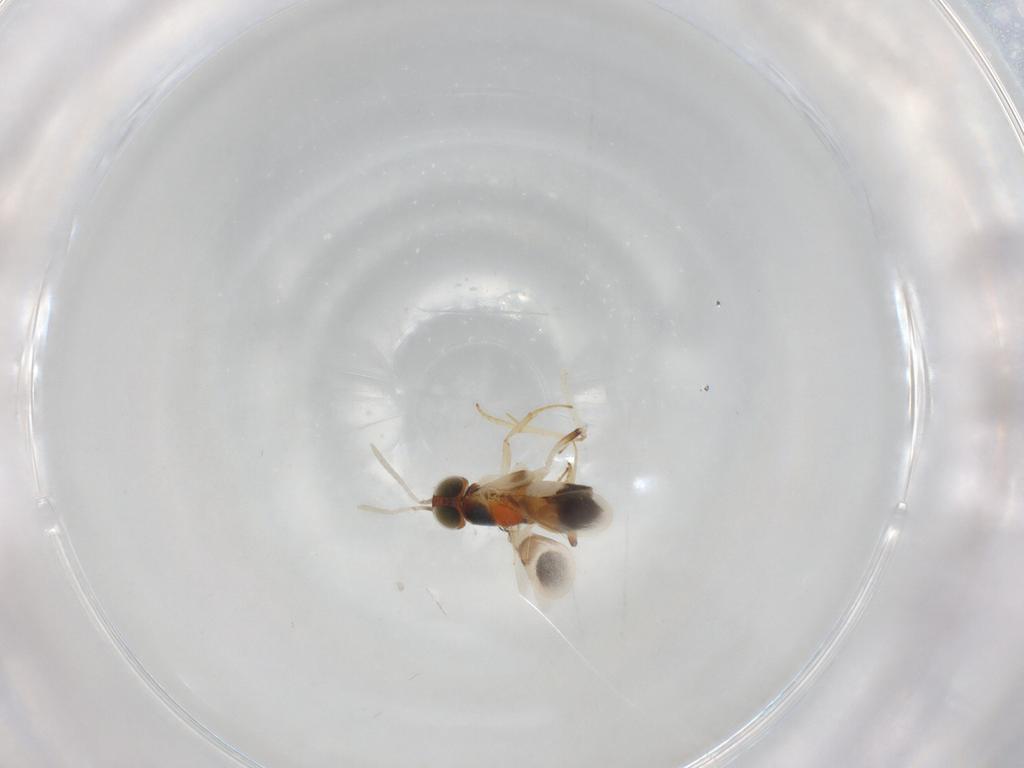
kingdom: Animalia
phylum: Arthropoda
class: Insecta
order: Hymenoptera
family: Encyrtidae
